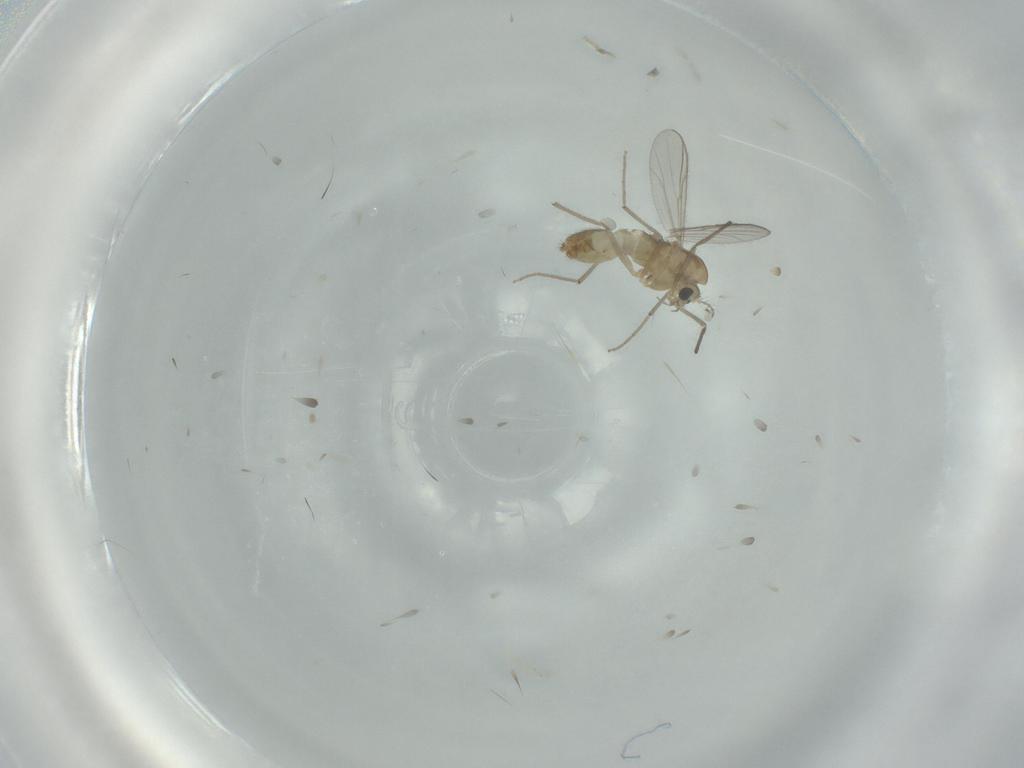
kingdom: Animalia
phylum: Arthropoda
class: Insecta
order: Diptera
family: Chironomidae
